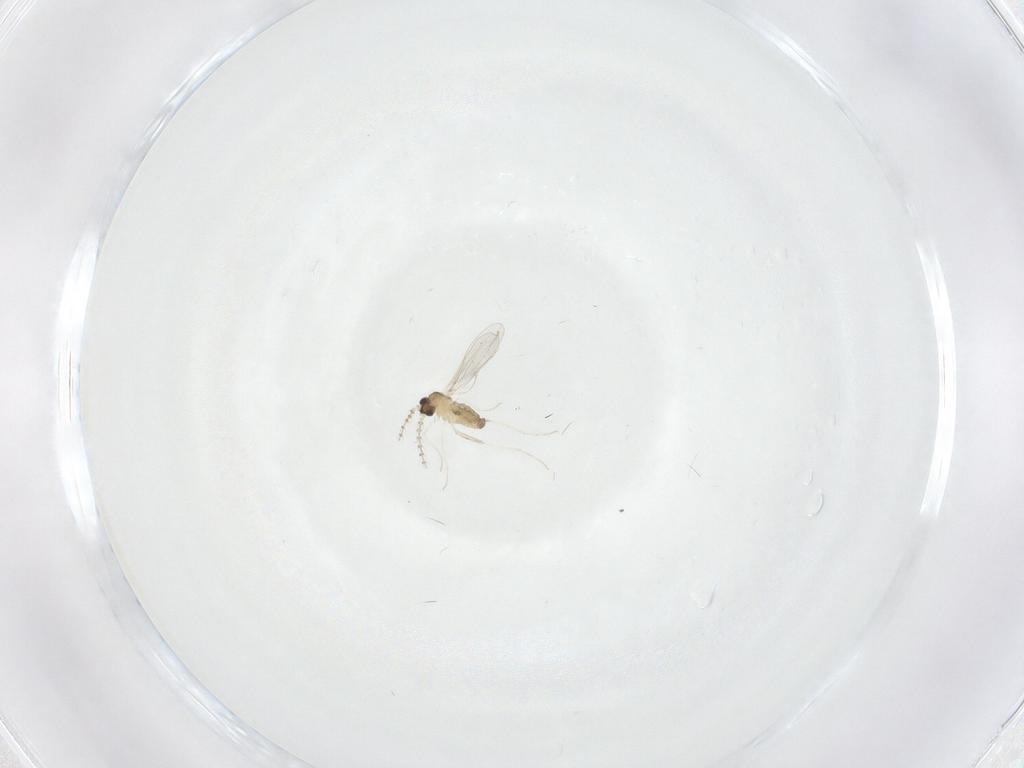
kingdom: Animalia
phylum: Arthropoda
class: Insecta
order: Diptera
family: Cecidomyiidae
